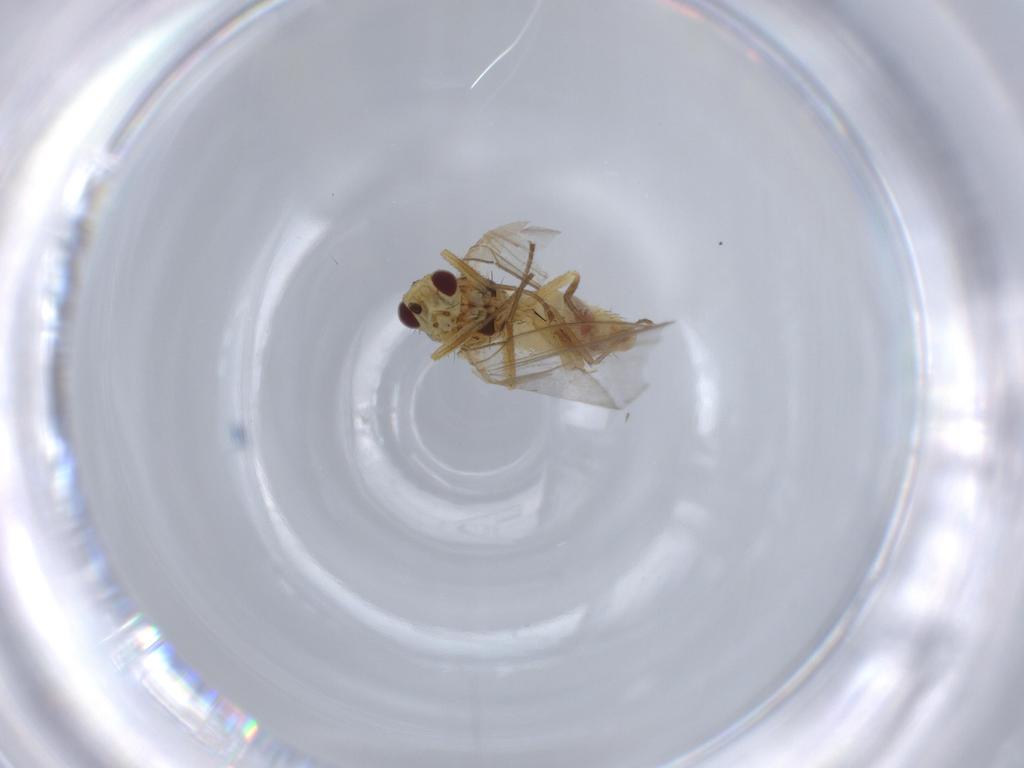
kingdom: Animalia
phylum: Arthropoda
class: Insecta
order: Diptera
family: Agromyzidae
